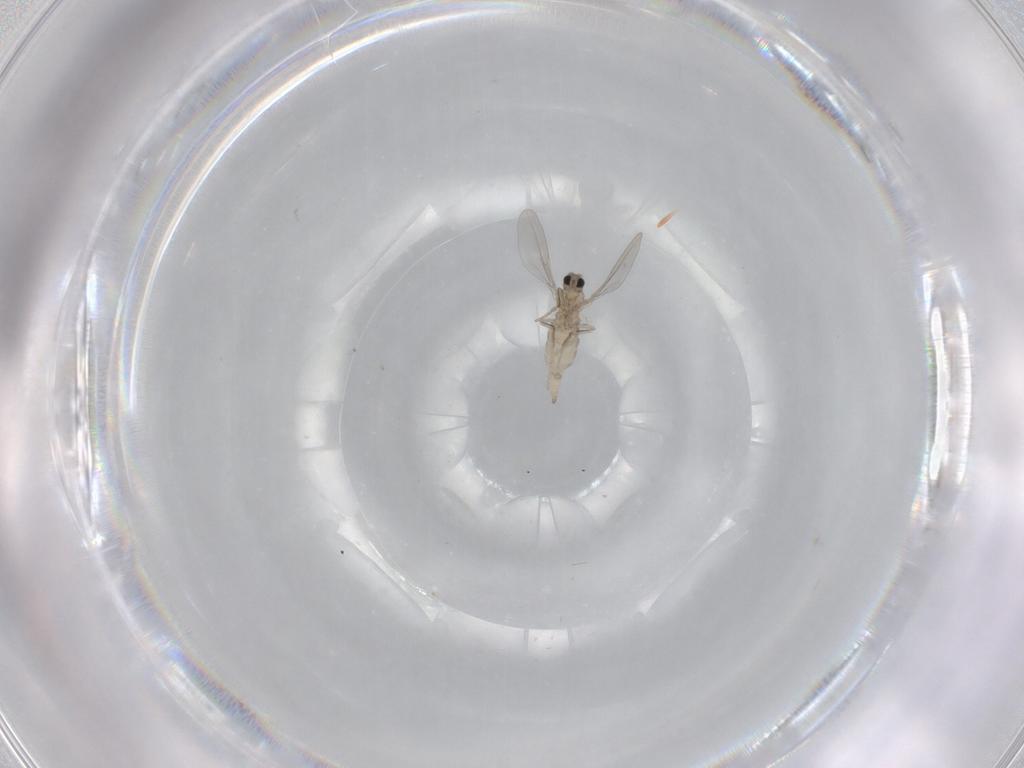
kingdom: Animalia
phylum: Arthropoda
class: Insecta
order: Diptera
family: Cecidomyiidae
